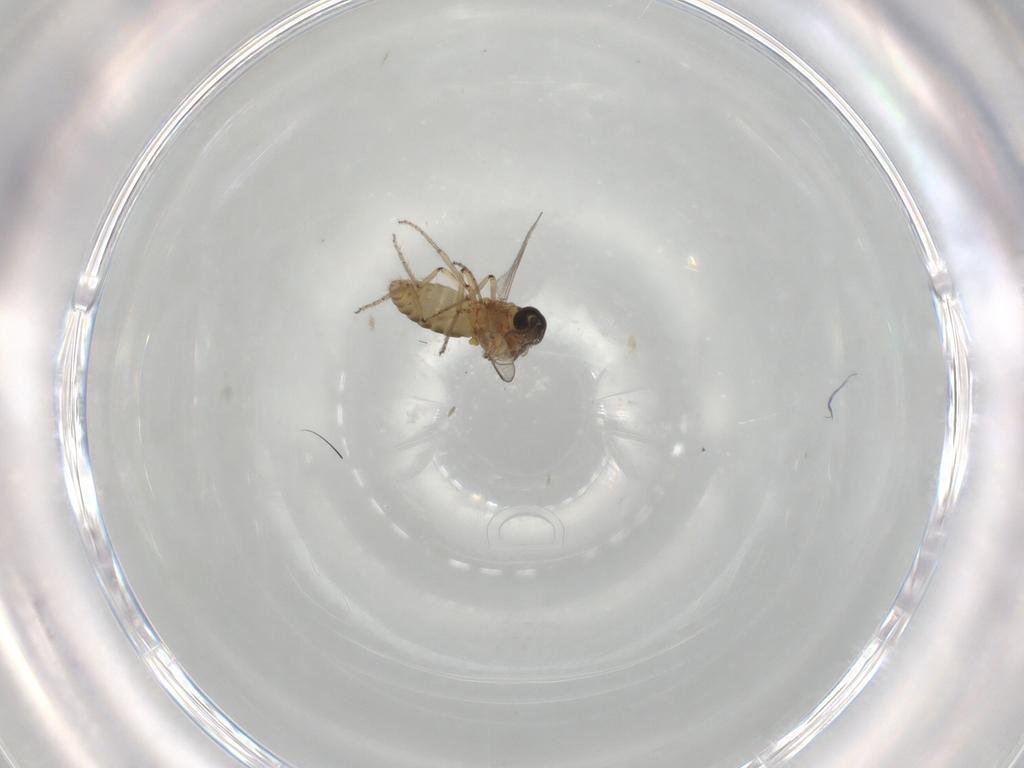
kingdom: Animalia
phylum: Arthropoda
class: Insecta
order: Diptera
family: Ceratopogonidae
